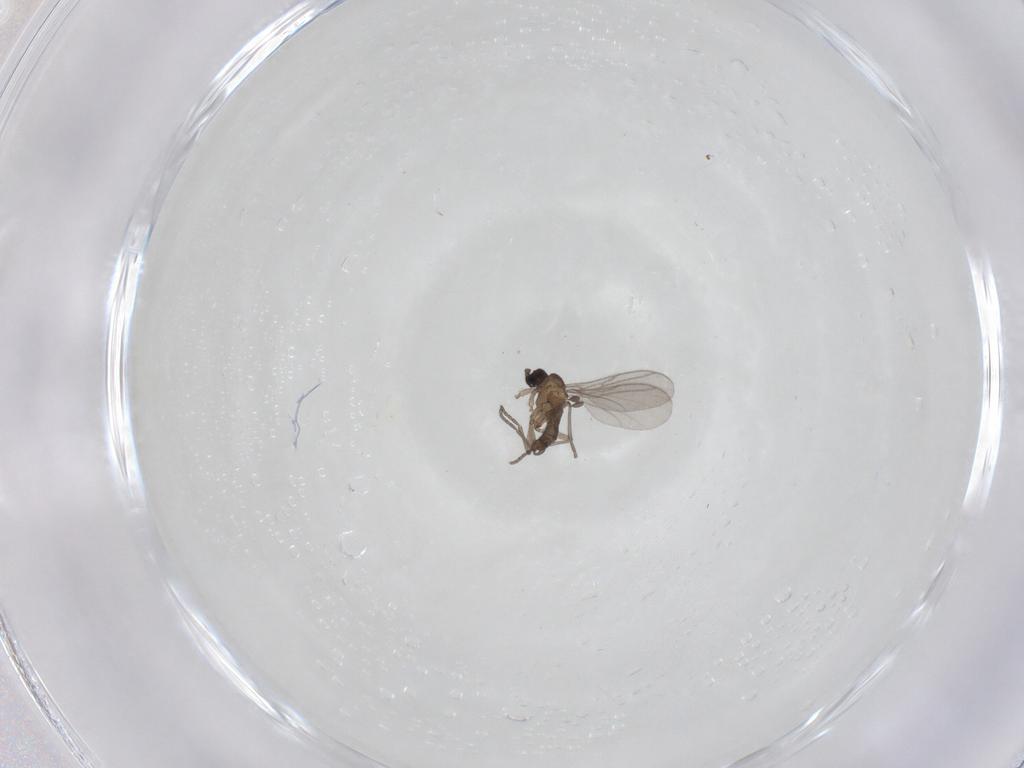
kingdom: Animalia
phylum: Arthropoda
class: Insecta
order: Diptera
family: Sciaridae
